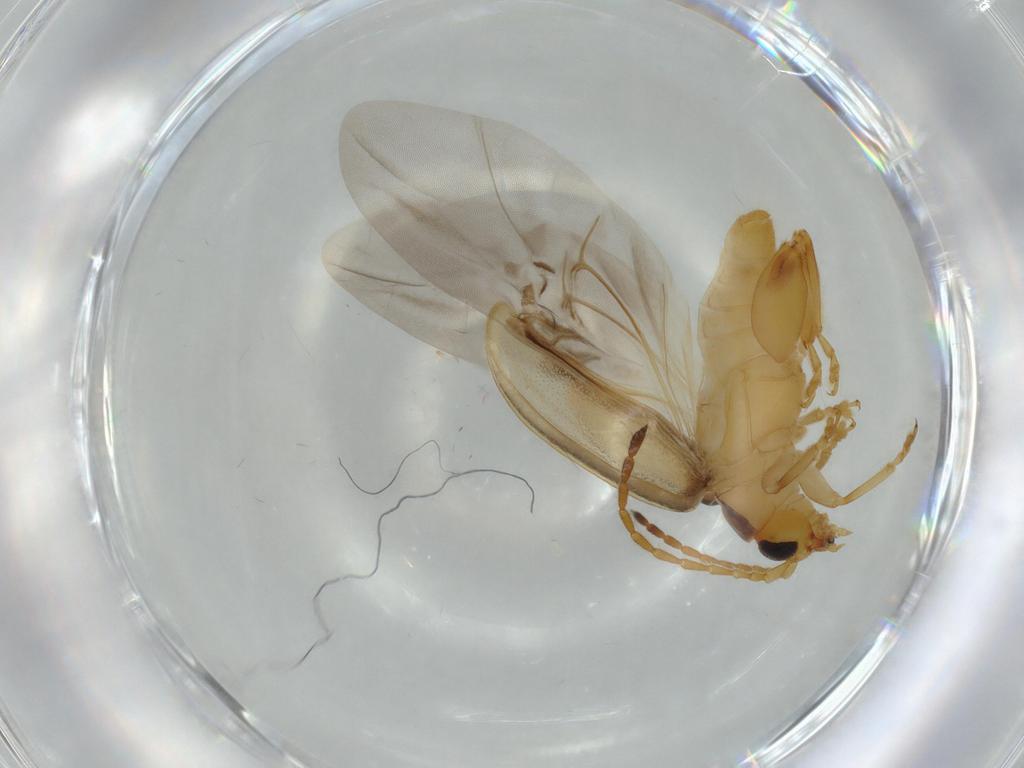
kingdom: Animalia
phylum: Arthropoda
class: Insecta
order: Coleoptera
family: Chrysomelidae
